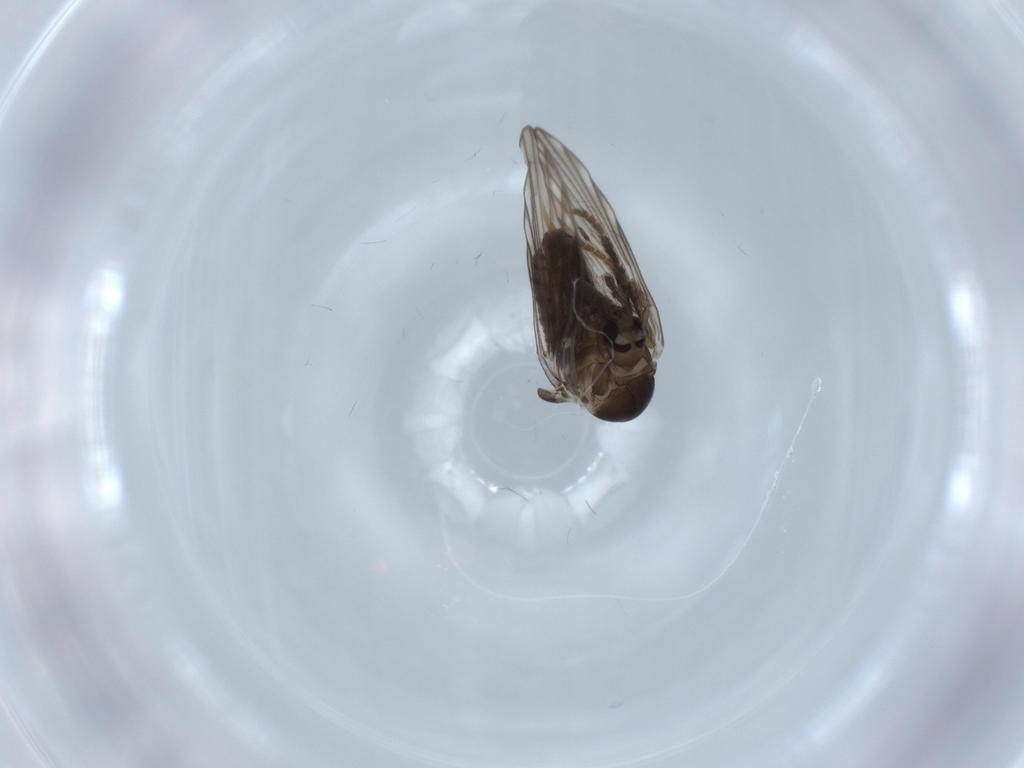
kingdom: Animalia
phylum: Arthropoda
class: Insecta
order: Diptera
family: Psychodidae
